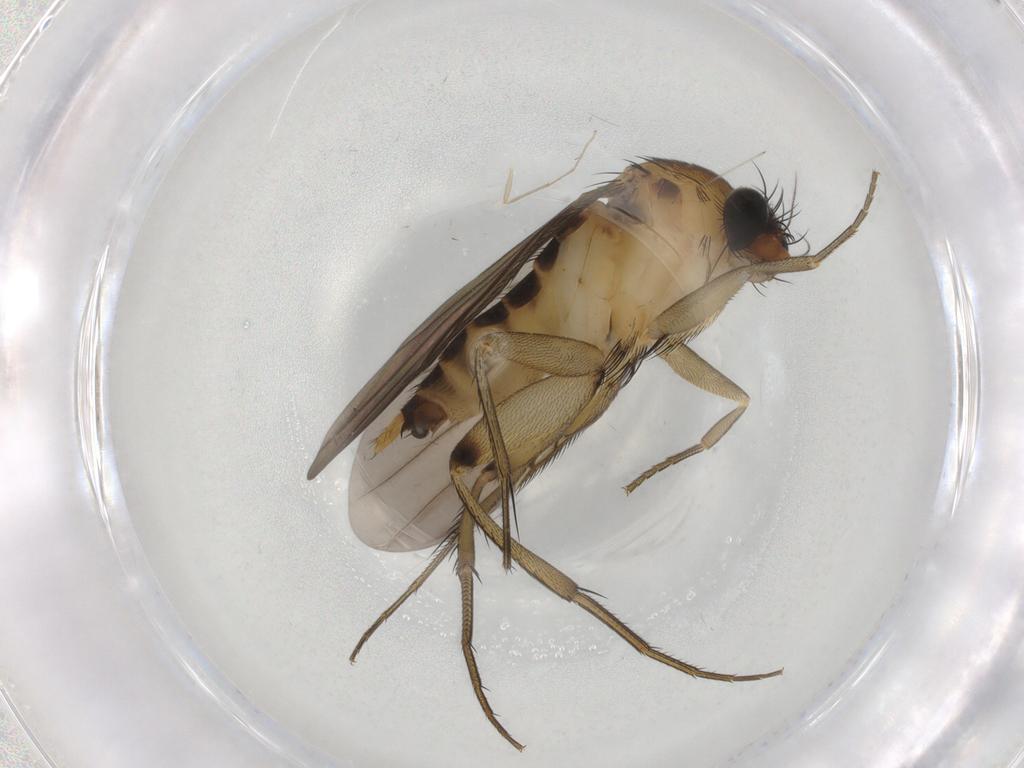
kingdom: Animalia
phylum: Arthropoda
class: Insecta
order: Diptera
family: Phoridae
